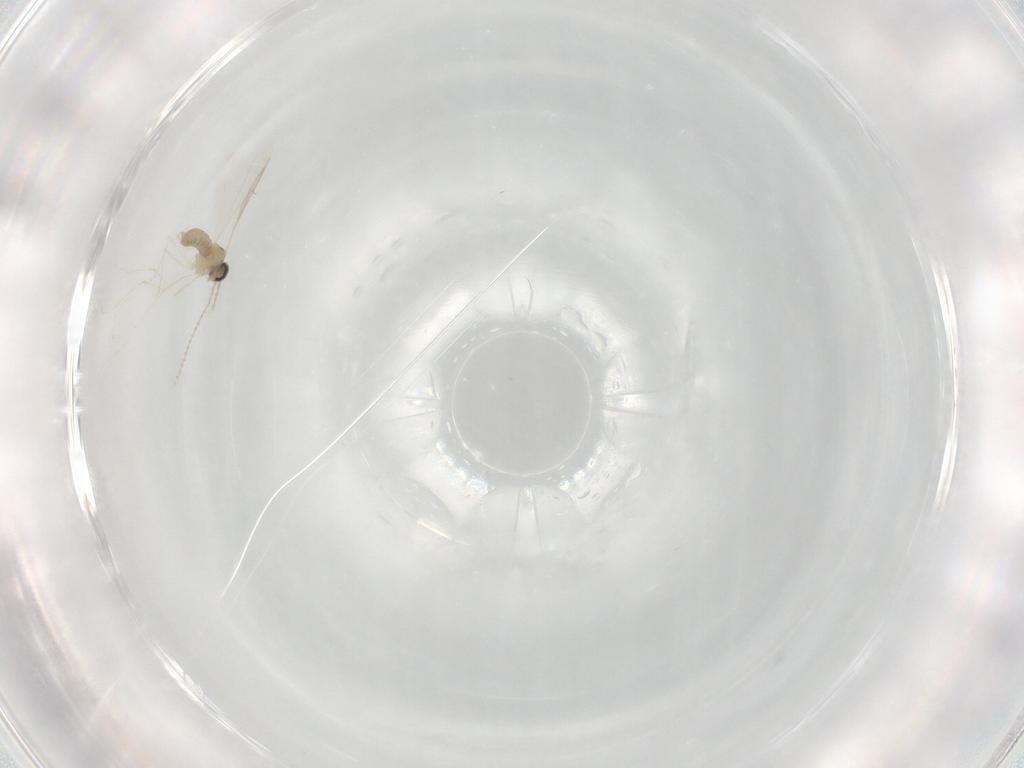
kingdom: Animalia
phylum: Arthropoda
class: Insecta
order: Diptera
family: Cecidomyiidae
